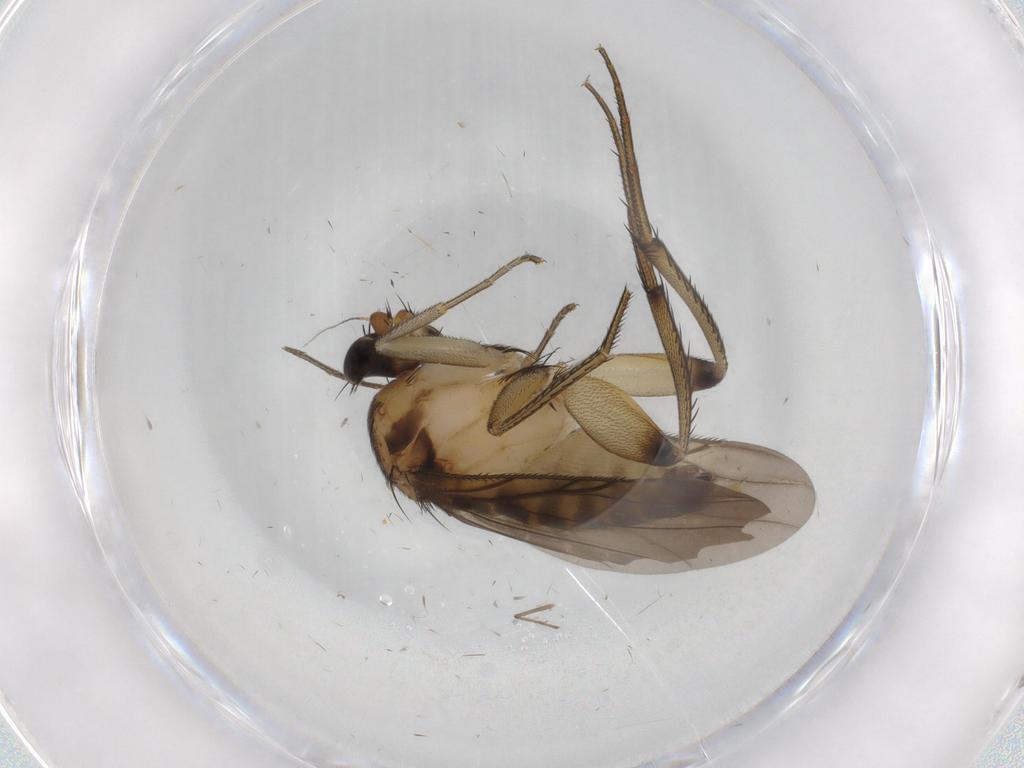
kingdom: Animalia
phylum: Arthropoda
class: Insecta
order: Diptera
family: Phoridae
